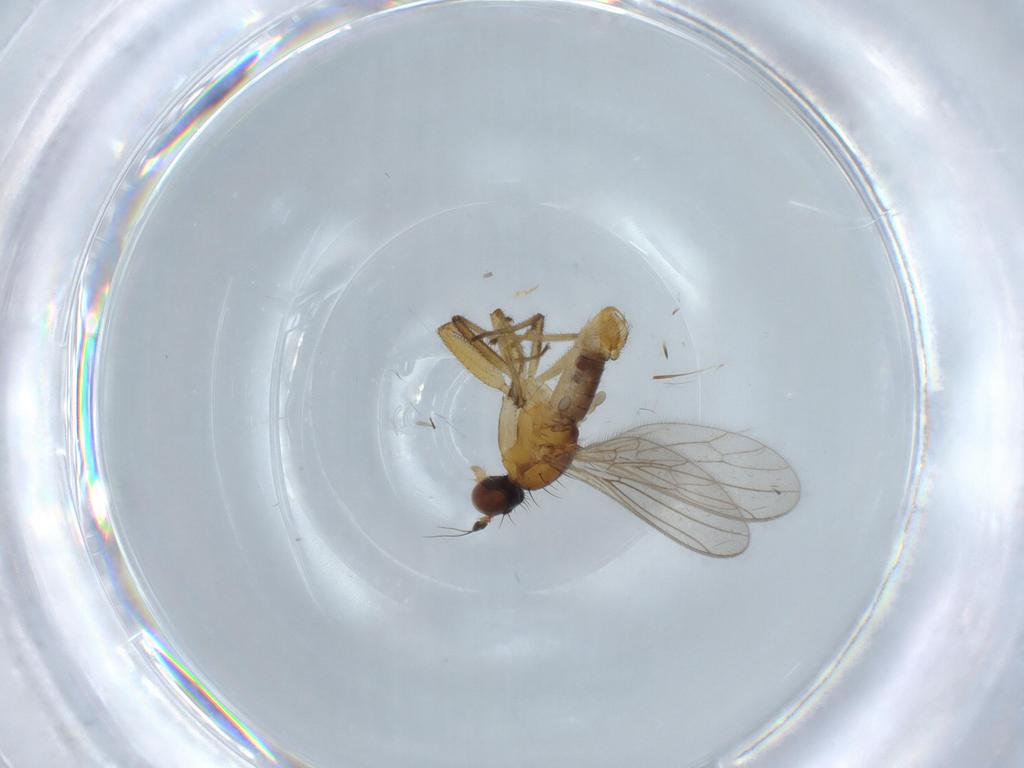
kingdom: Animalia
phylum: Arthropoda
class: Insecta
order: Diptera
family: Empididae
